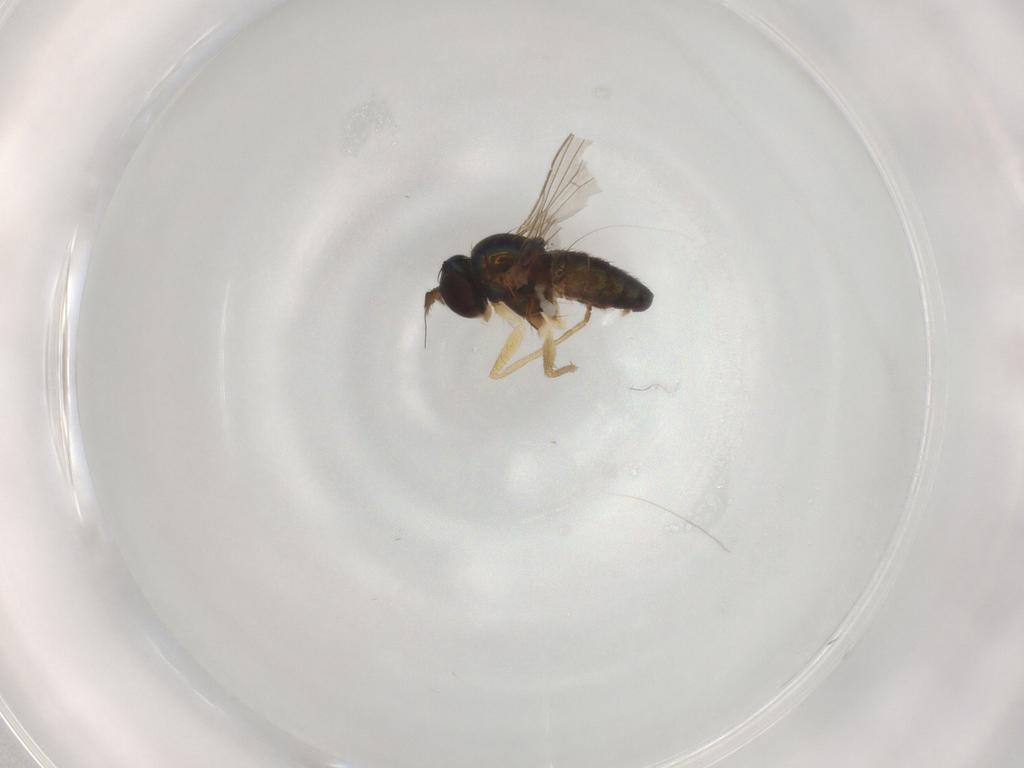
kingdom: Animalia
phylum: Arthropoda
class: Insecta
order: Diptera
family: Dolichopodidae
